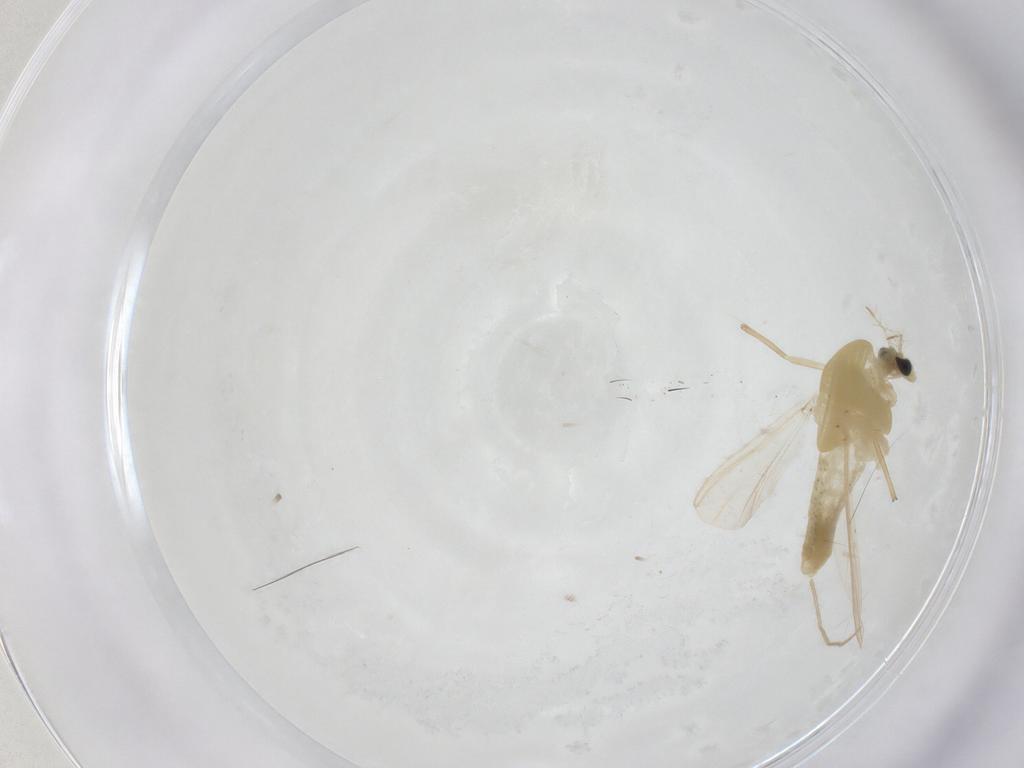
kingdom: Animalia
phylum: Arthropoda
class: Insecta
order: Diptera
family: Chironomidae
